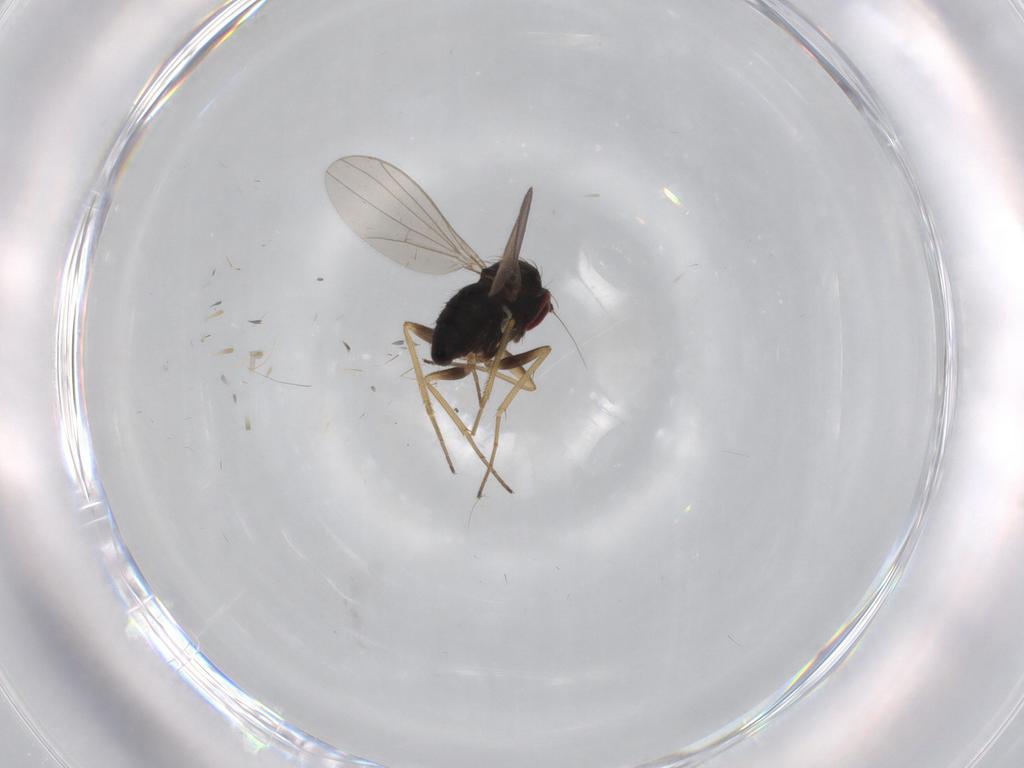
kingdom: Animalia
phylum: Arthropoda
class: Insecta
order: Diptera
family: Sciaridae
